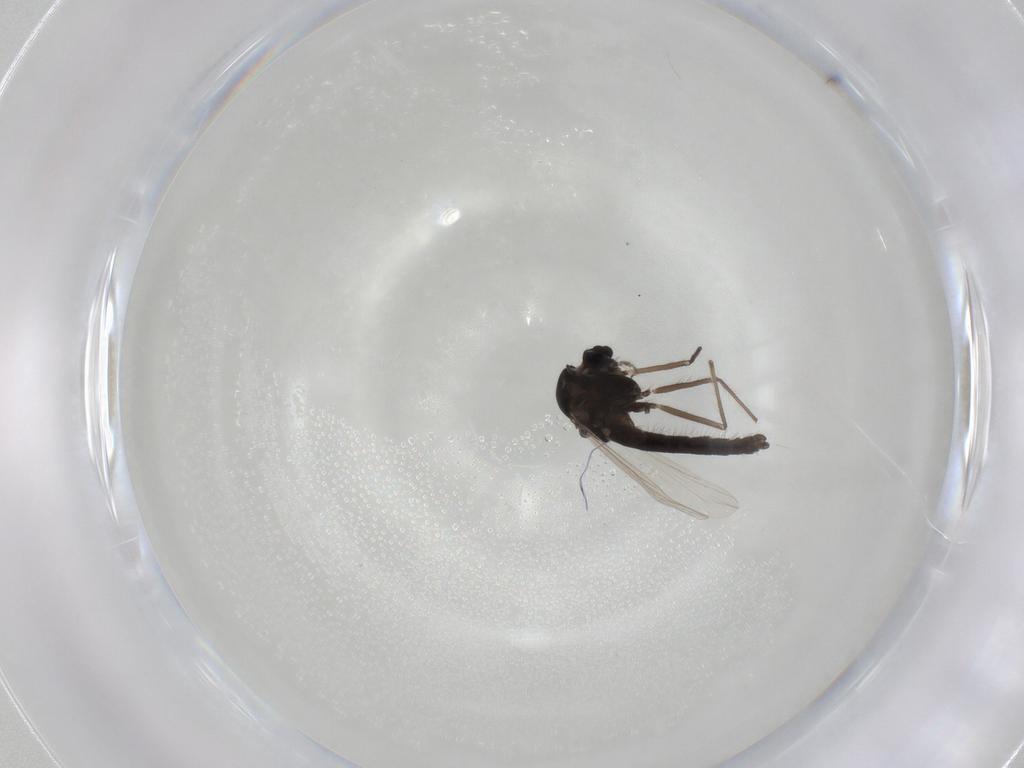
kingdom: Animalia
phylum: Arthropoda
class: Insecta
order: Diptera
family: Chironomidae
